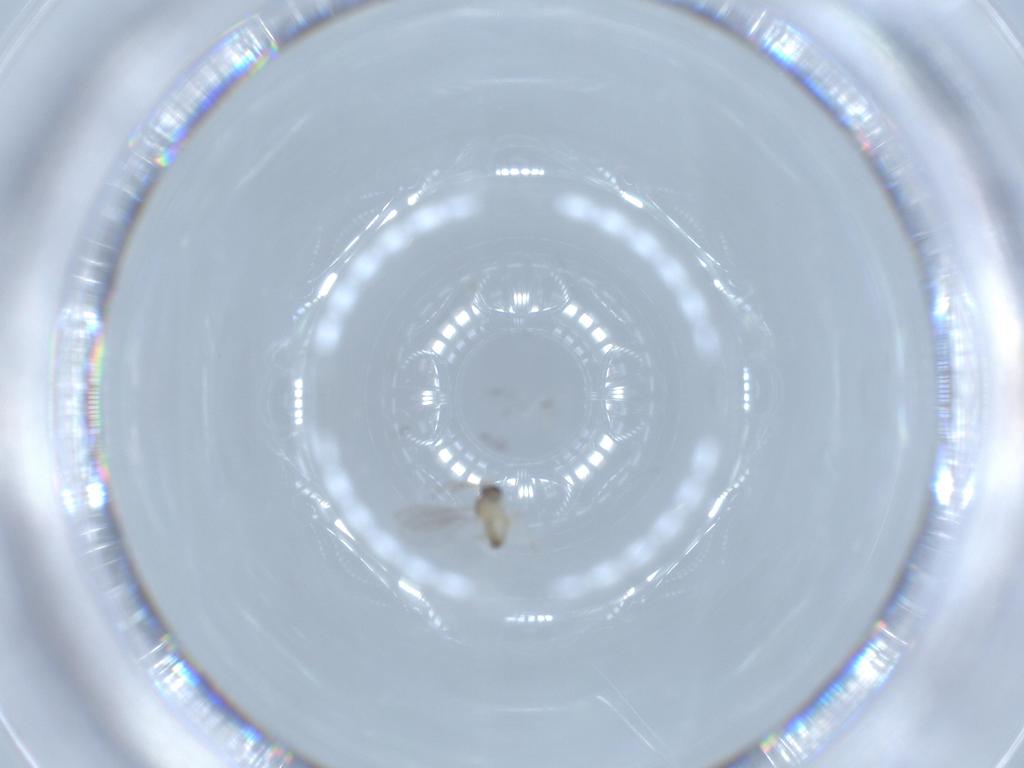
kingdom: Animalia
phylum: Arthropoda
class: Insecta
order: Diptera
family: Cecidomyiidae
